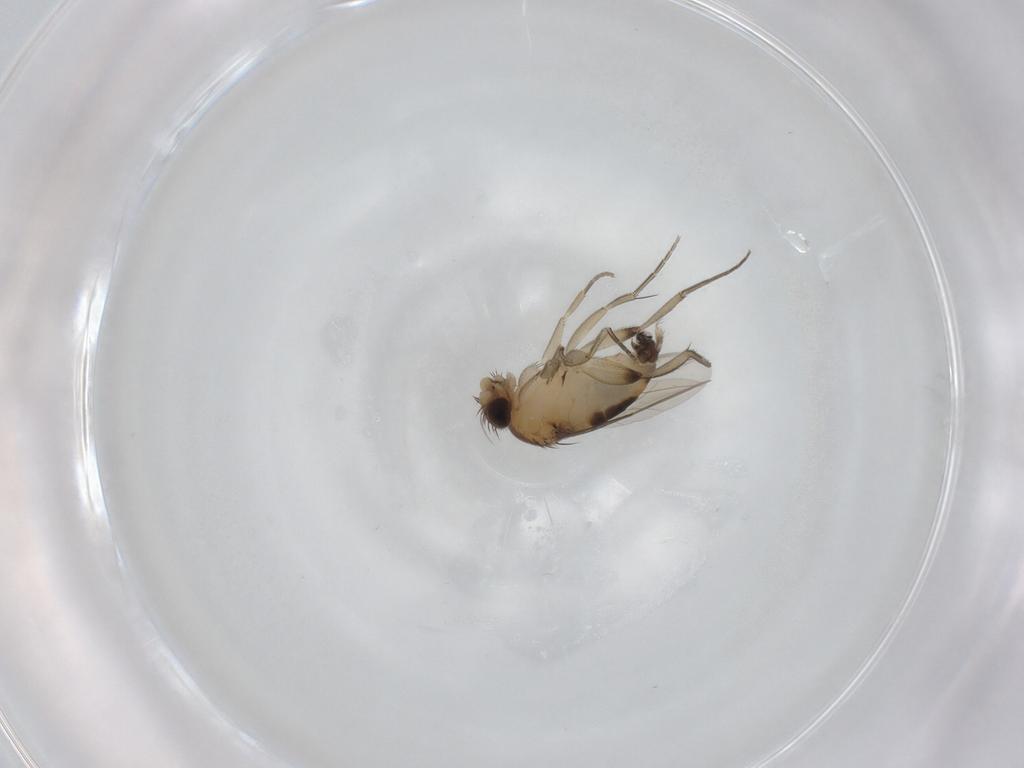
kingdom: Animalia
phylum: Arthropoda
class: Insecta
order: Diptera
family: Phoridae
